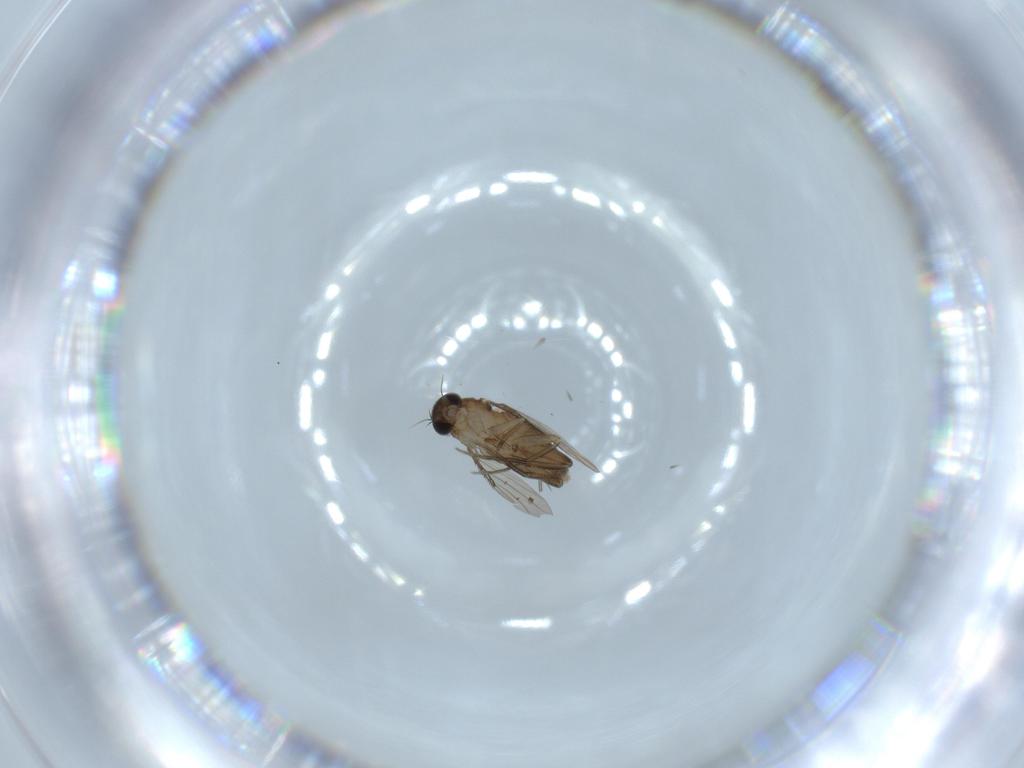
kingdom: Animalia
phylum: Arthropoda
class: Insecta
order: Diptera
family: Phoridae
